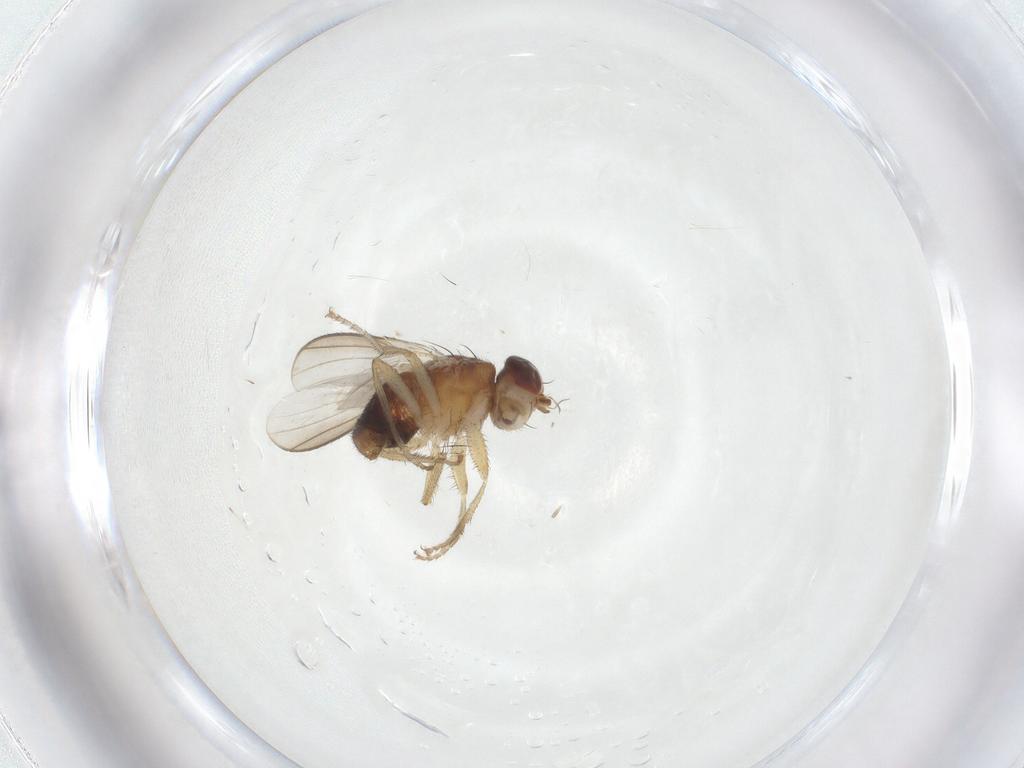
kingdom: Animalia
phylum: Arthropoda
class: Insecta
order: Diptera
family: Heleomyzidae
